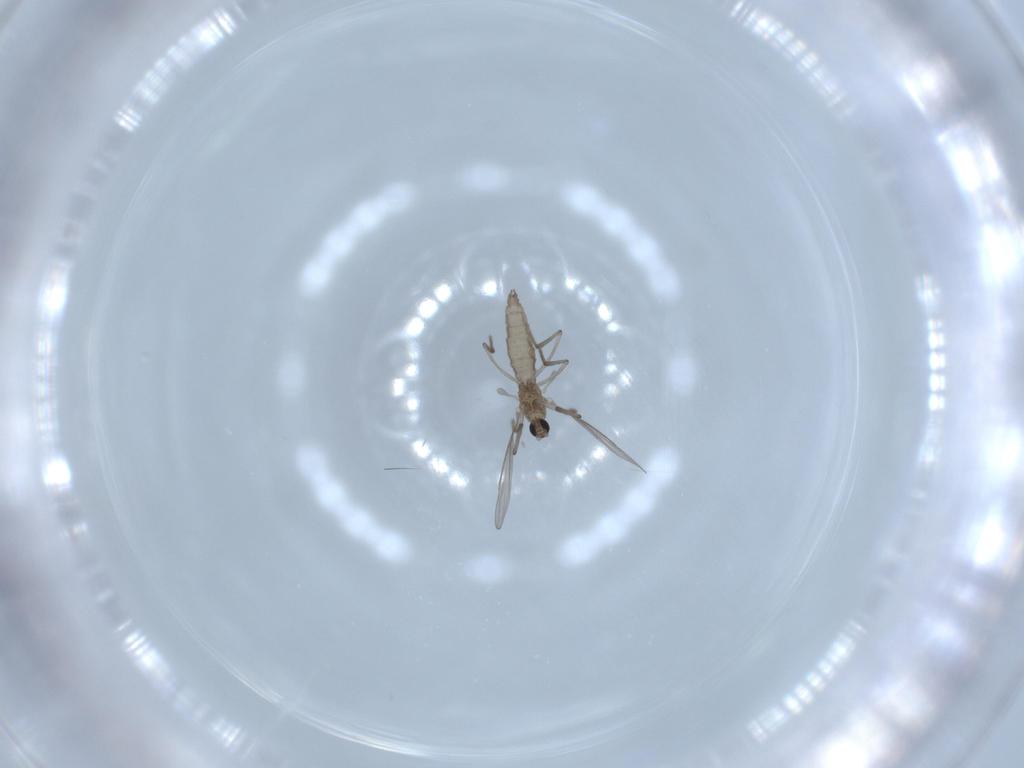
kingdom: Animalia
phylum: Arthropoda
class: Insecta
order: Diptera
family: Cecidomyiidae
